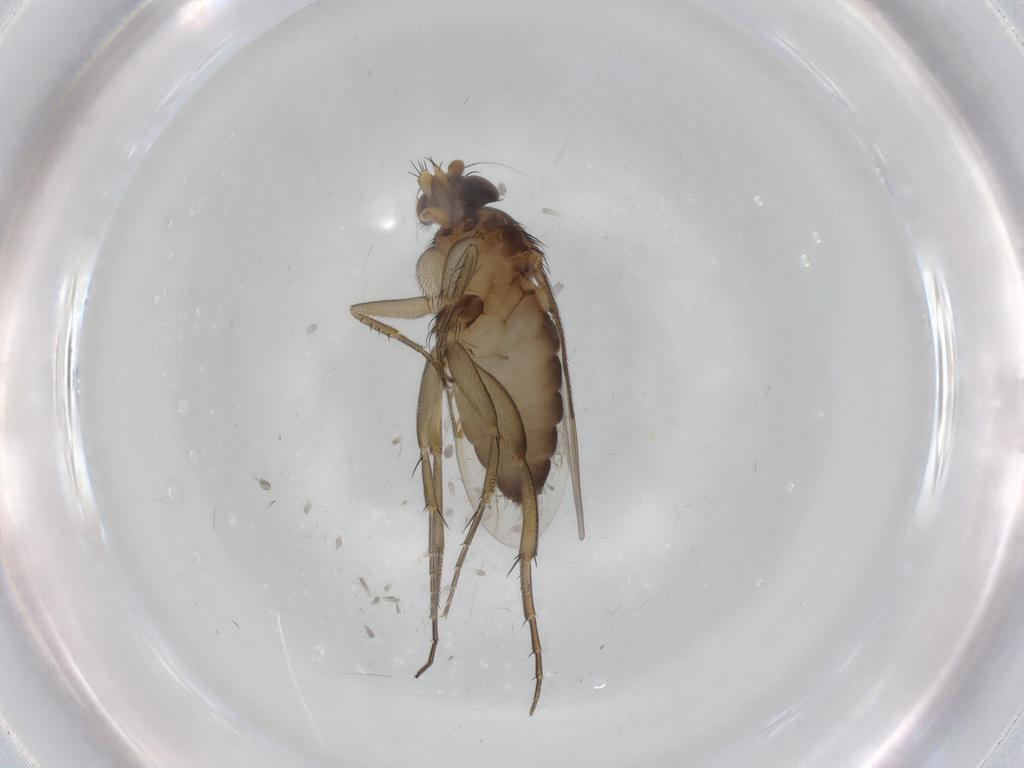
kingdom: Animalia
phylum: Arthropoda
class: Insecta
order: Diptera
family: Phoridae
